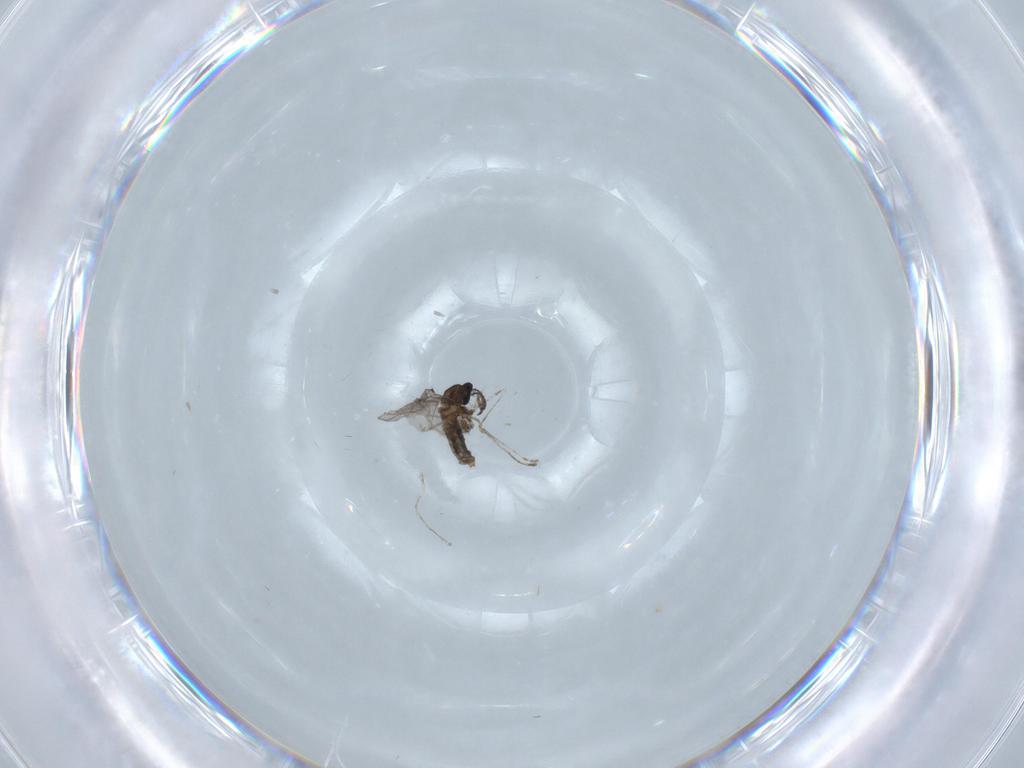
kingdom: Animalia
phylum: Arthropoda
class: Insecta
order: Diptera
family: Cecidomyiidae
